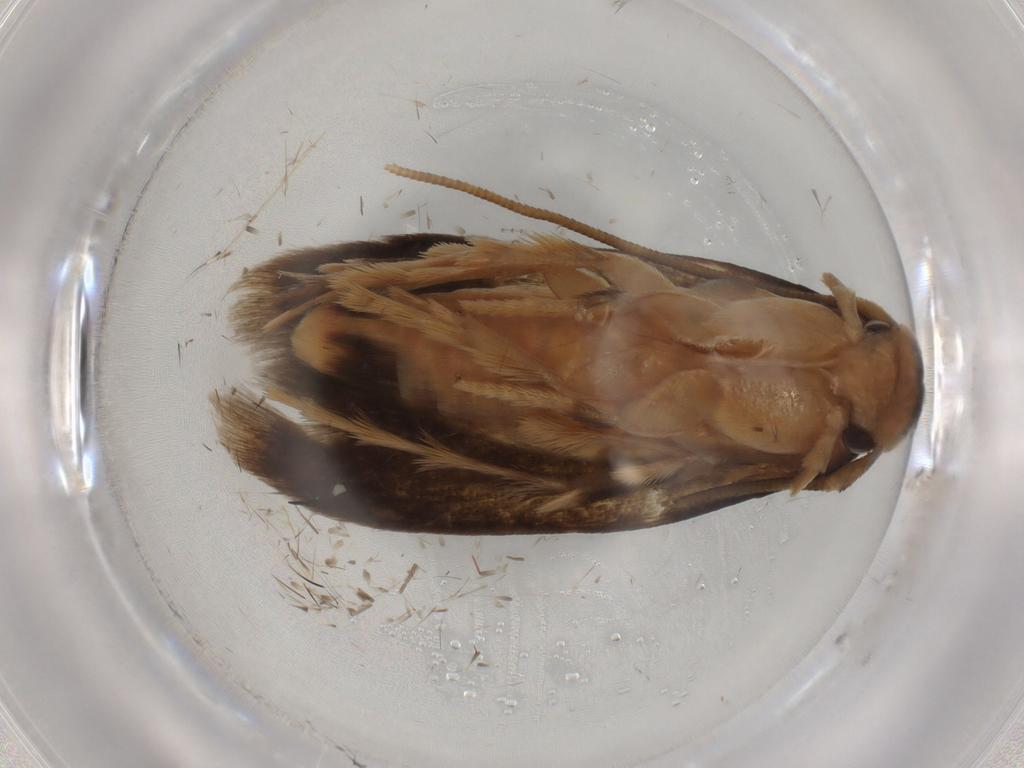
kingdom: Animalia
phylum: Arthropoda
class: Insecta
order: Lepidoptera
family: Tineidae
